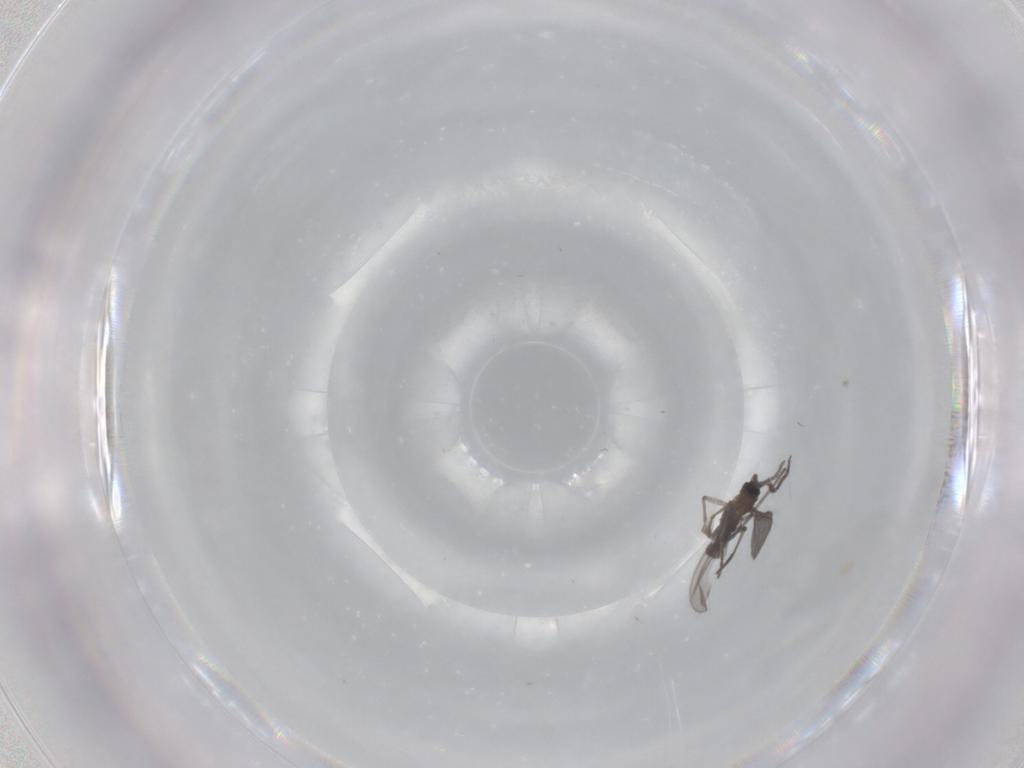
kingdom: Animalia
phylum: Arthropoda
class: Insecta
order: Diptera
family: Sciaridae
